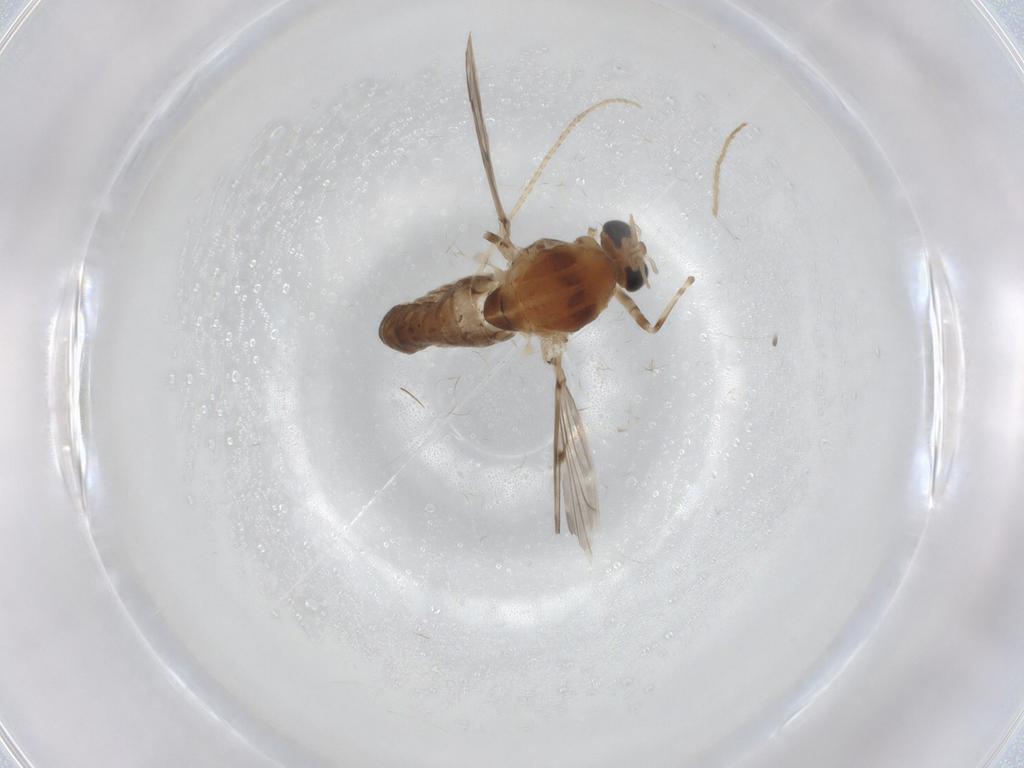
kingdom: Animalia
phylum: Arthropoda
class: Insecta
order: Diptera
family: Chironomidae
